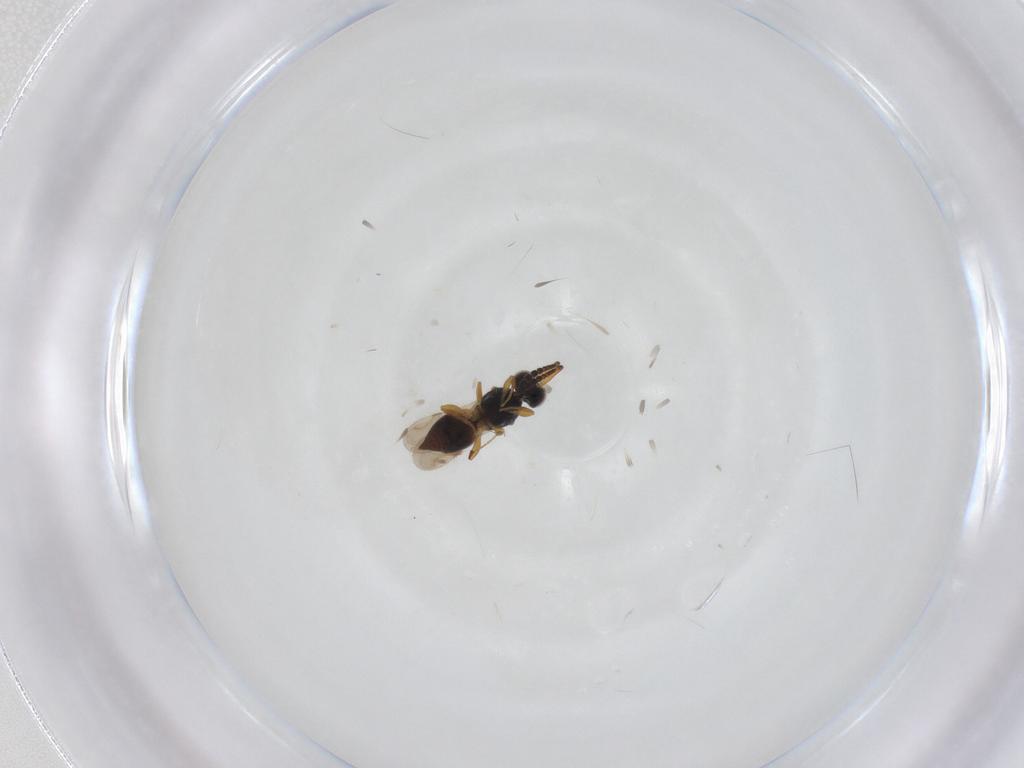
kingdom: Animalia
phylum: Arthropoda
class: Insecta
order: Hymenoptera
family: Ceraphronidae
